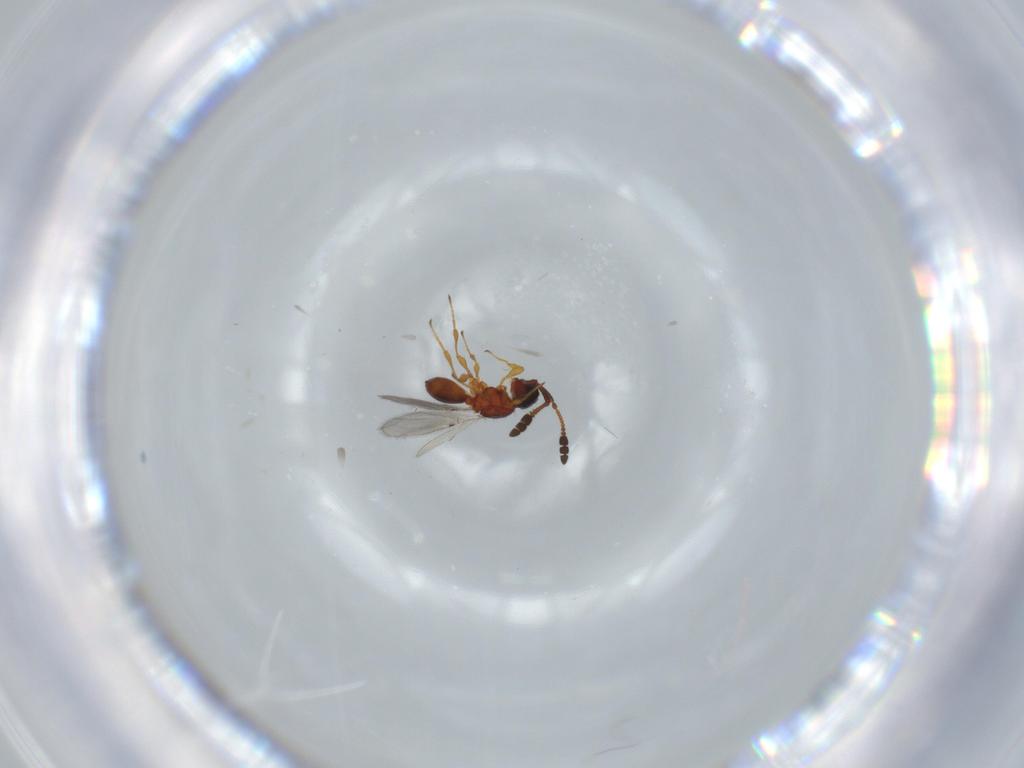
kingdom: Animalia
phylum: Arthropoda
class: Insecta
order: Hymenoptera
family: Diapriidae
